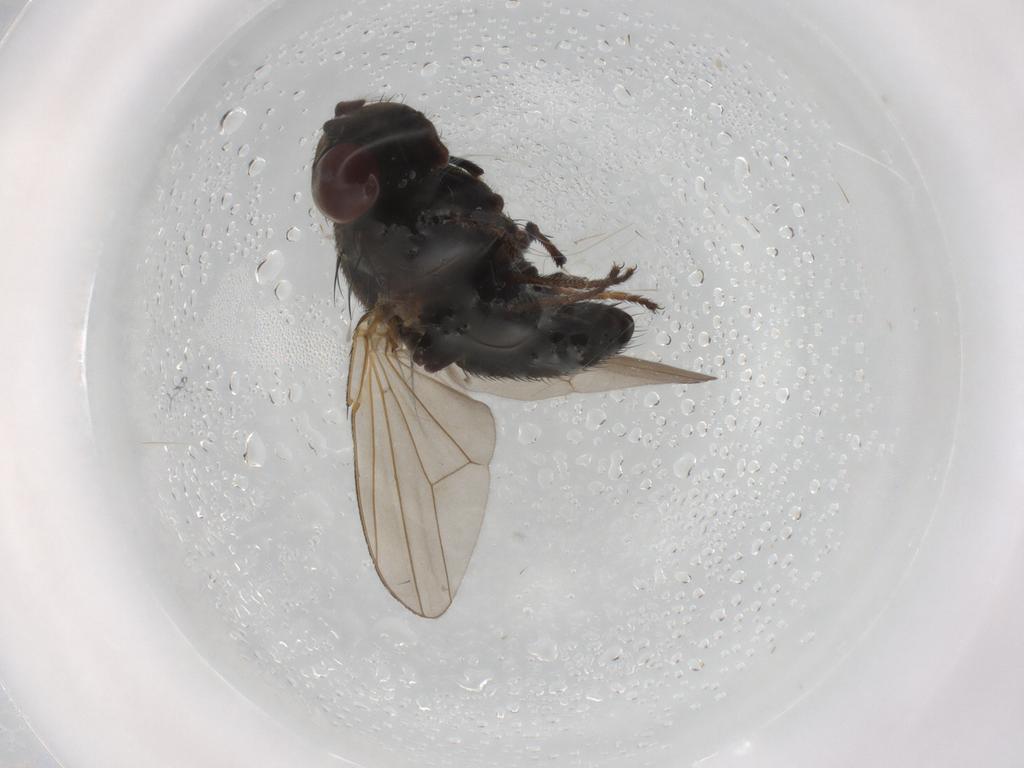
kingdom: Animalia
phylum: Arthropoda
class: Insecta
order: Diptera
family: Ephydridae
